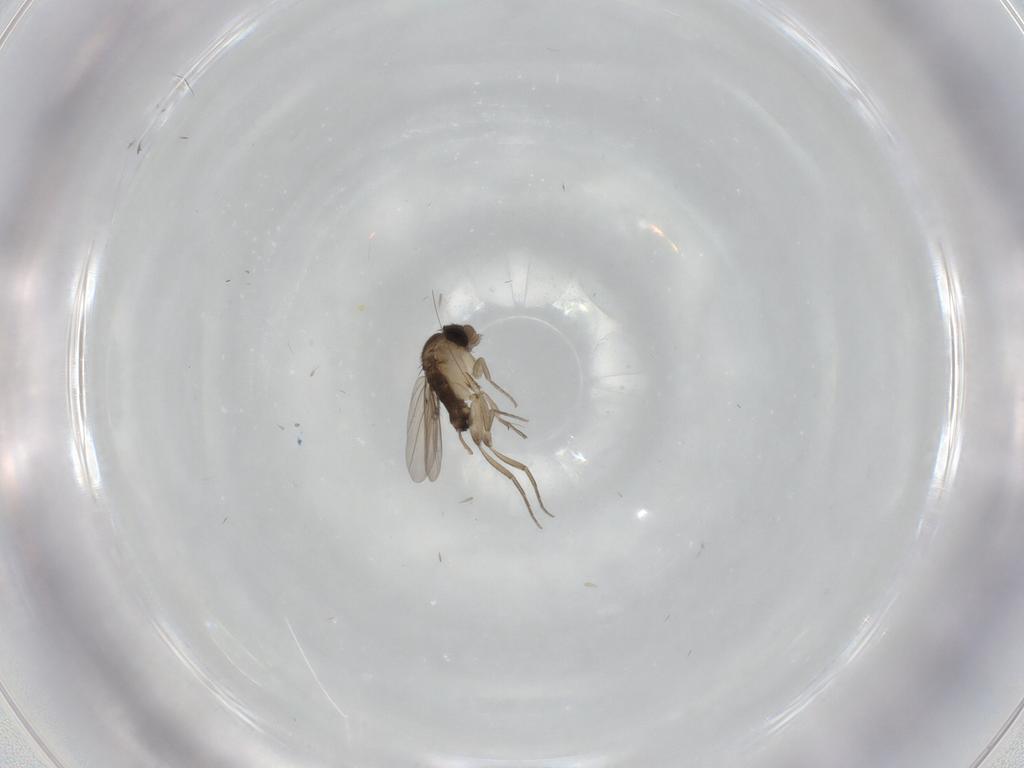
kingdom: Animalia
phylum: Arthropoda
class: Insecta
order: Diptera
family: Phoridae
